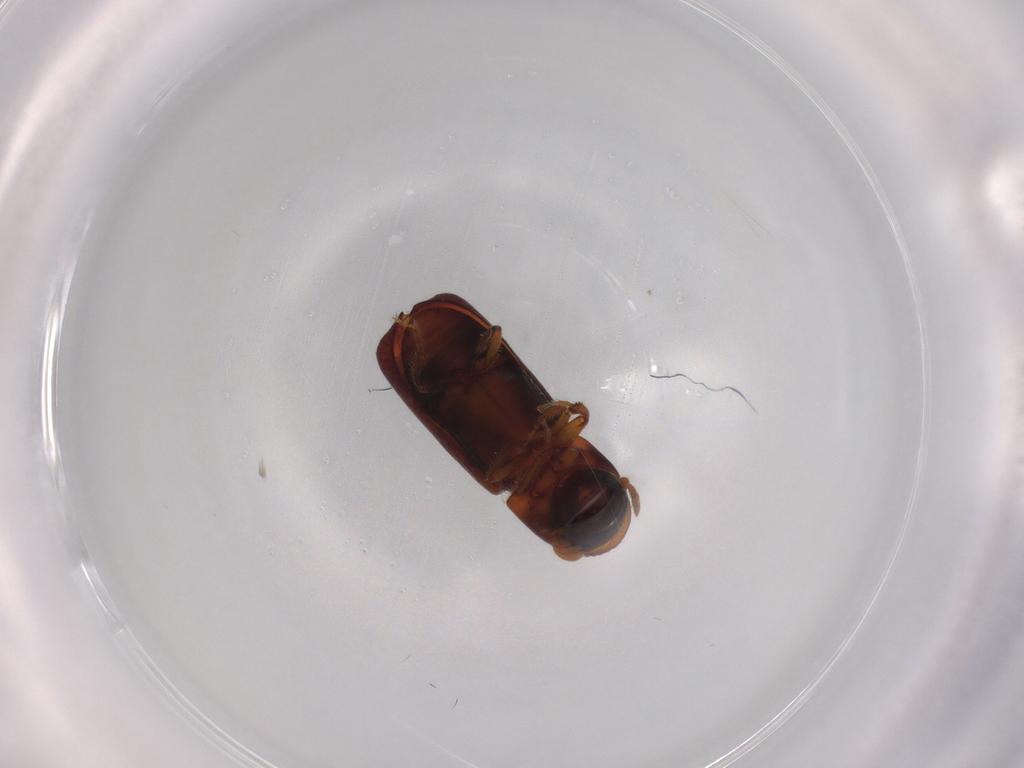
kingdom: Animalia
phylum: Arthropoda
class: Insecta
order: Coleoptera
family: Curculionidae
